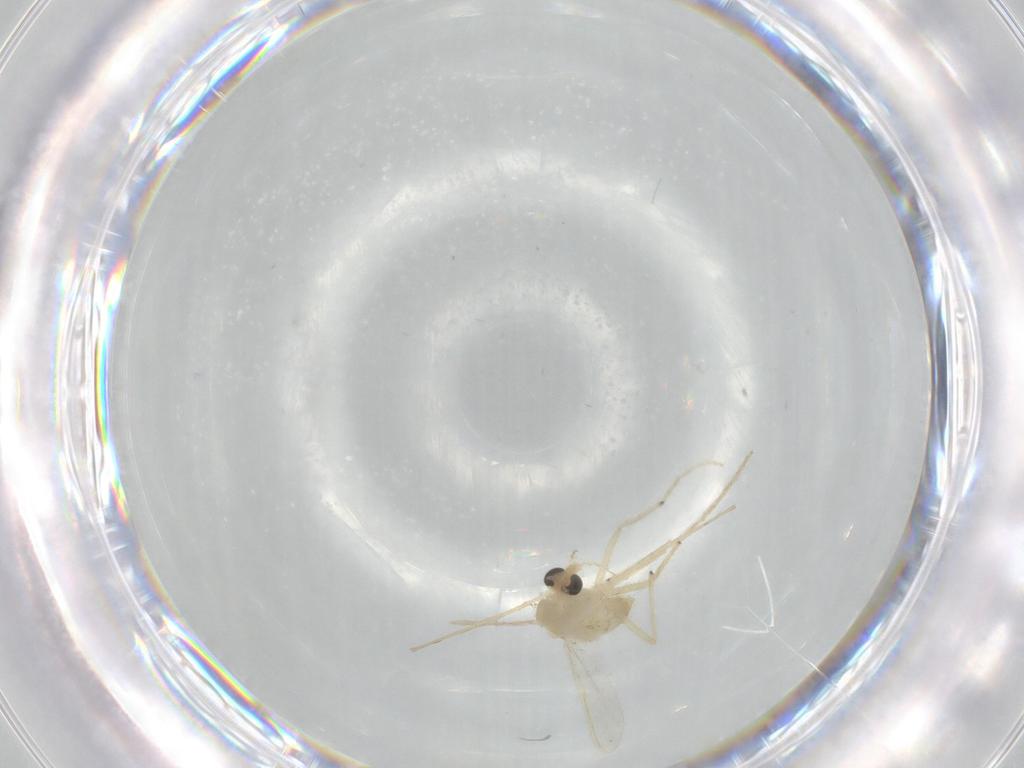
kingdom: Animalia
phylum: Arthropoda
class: Insecta
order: Diptera
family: Chironomidae
